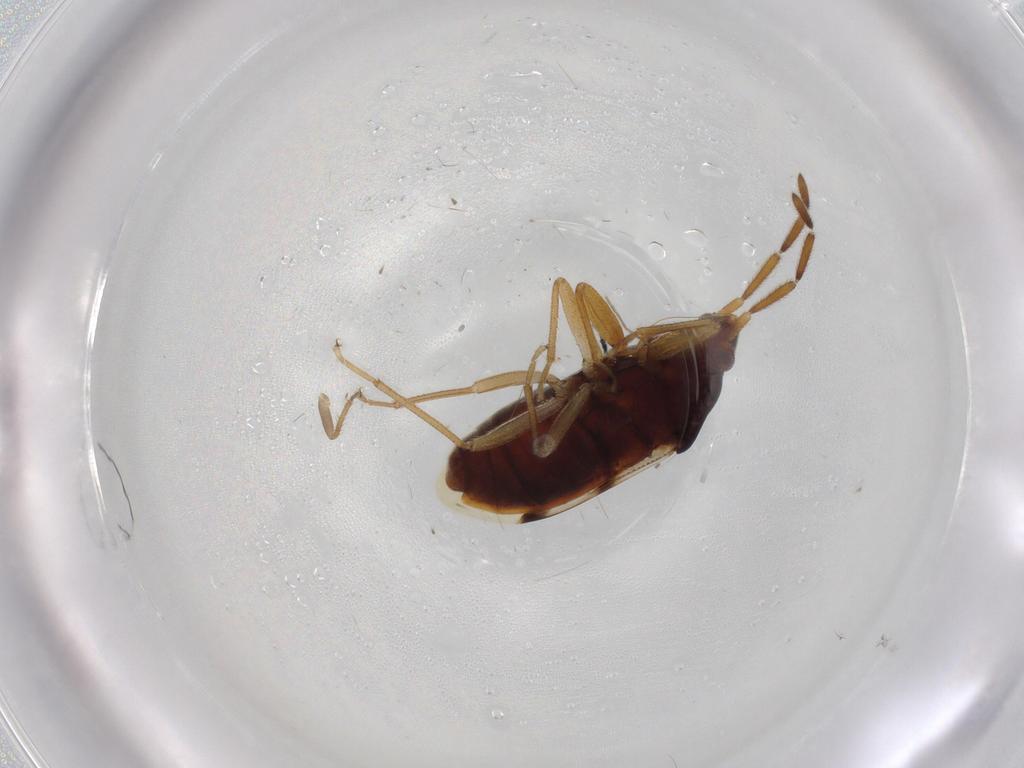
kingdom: Animalia
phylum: Arthropoda
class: Insecta
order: Hemiptera
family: Rhyparochromidae
